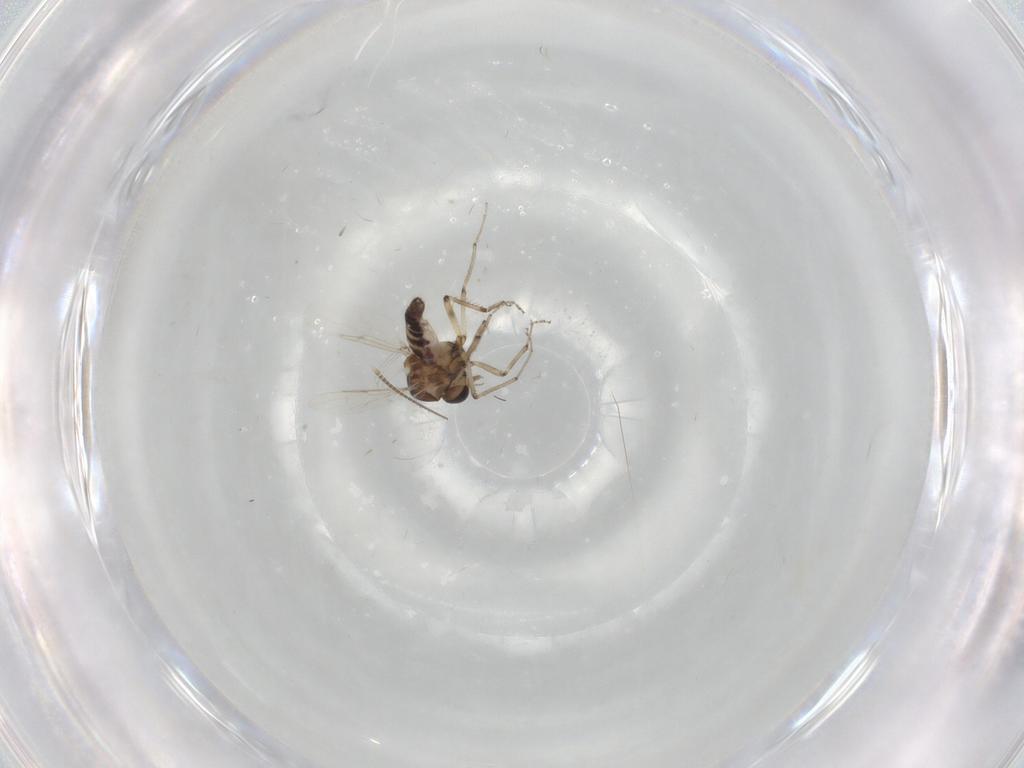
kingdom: Animalia
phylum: Arthropoda
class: Insecta
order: Diptera
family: Ceratopogonidae
